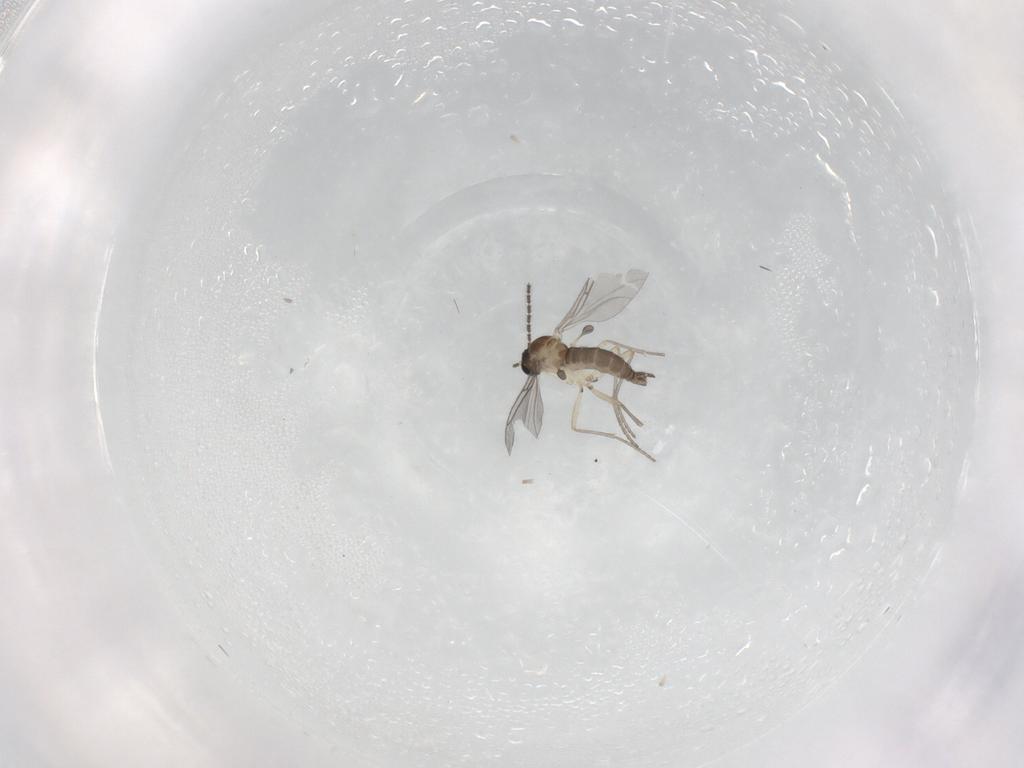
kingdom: Animalia
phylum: Arthropoda
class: Insecta
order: Diptera
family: Sciaridae
